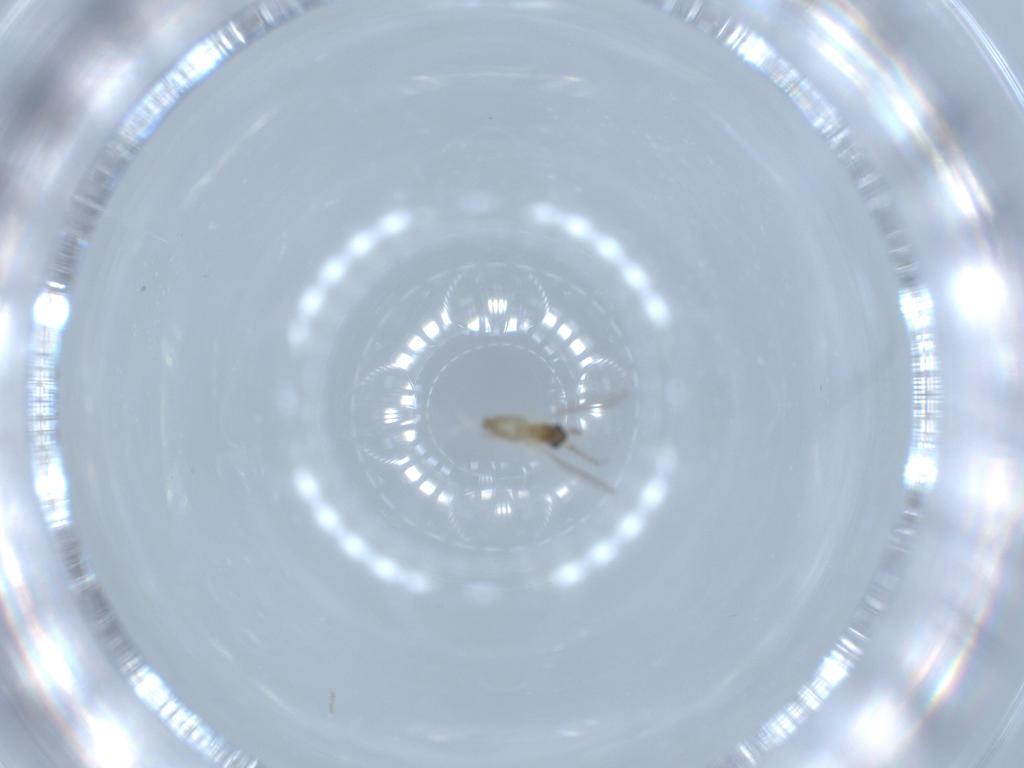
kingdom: Animalia
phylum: Arthropoda
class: Insecta
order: Diptera
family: Cecidomyiidae
